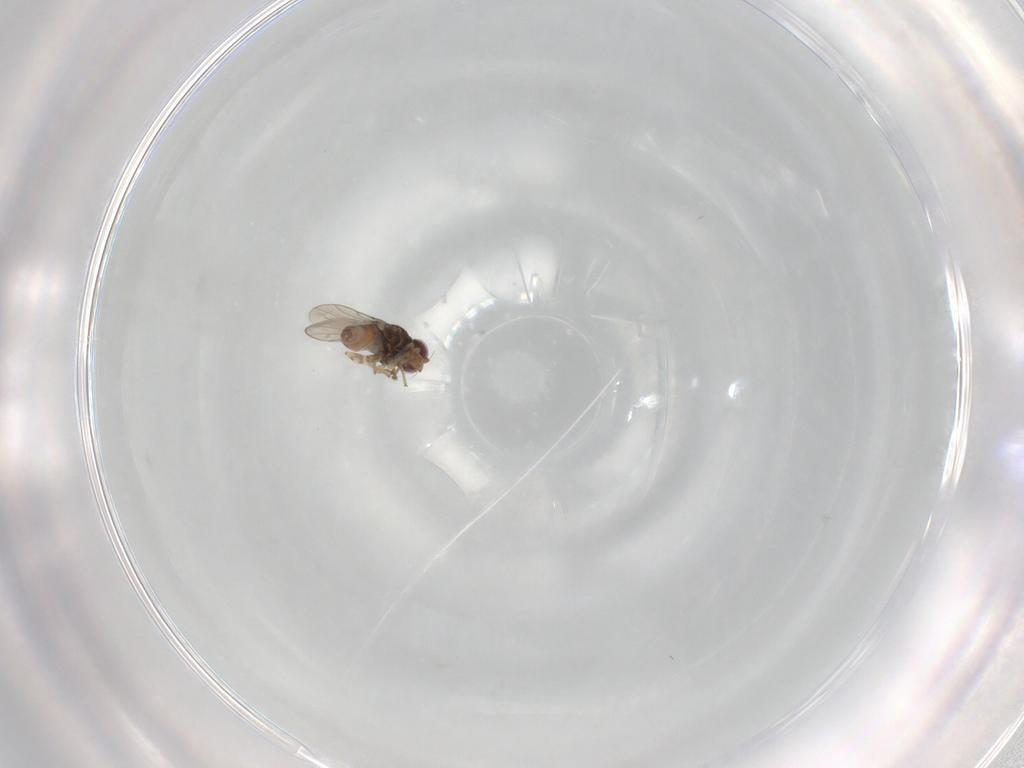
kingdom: Animalia
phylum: Arthropoda
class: Insecta
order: Diptera
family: Chloropidae
